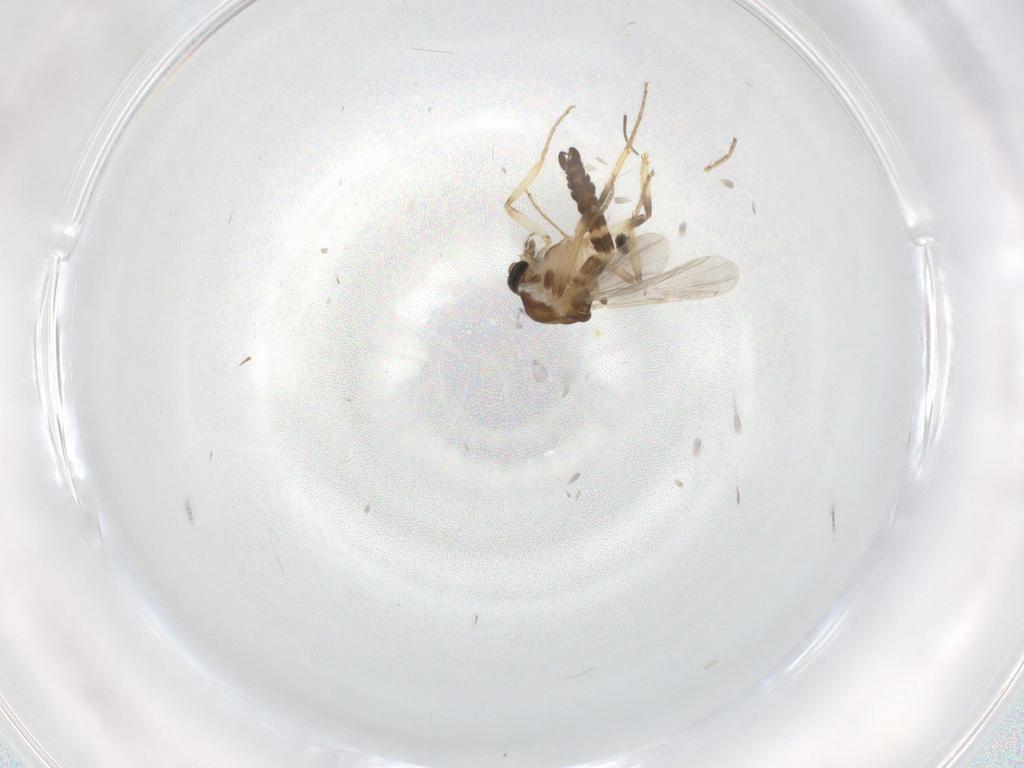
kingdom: Animalia
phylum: Arthropoda
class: Insecta
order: Diptera
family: Ceratopogonidae
